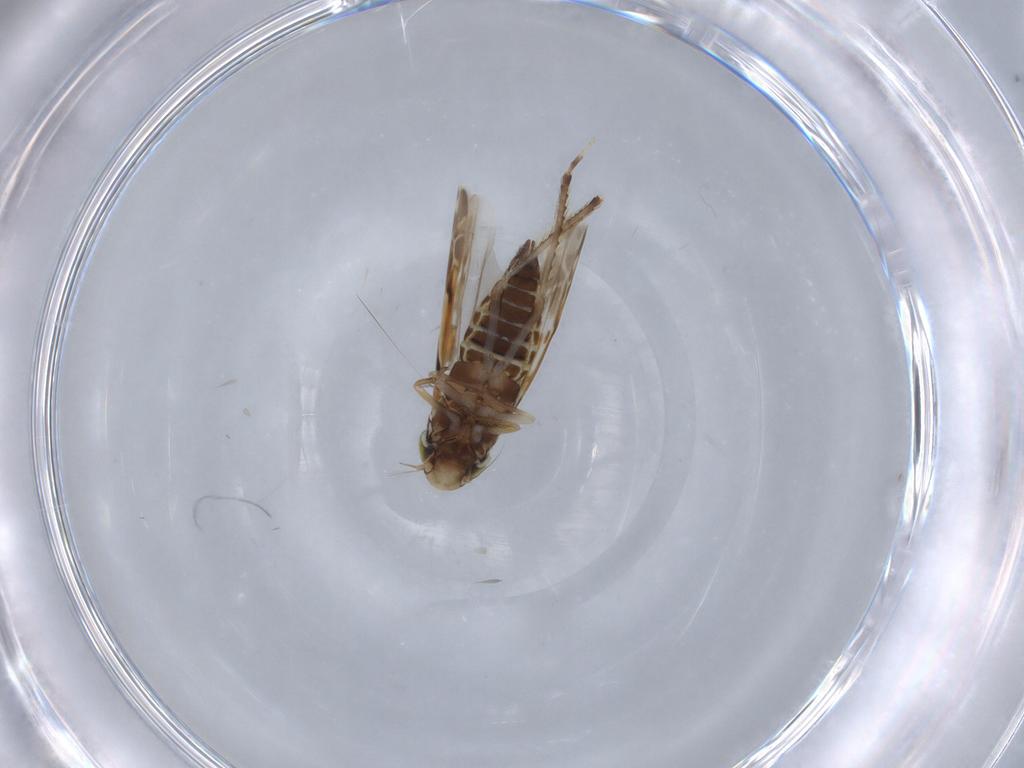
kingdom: Animalia
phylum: Arthropoda
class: Insecta
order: Hemiptera
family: Cicadellidae
